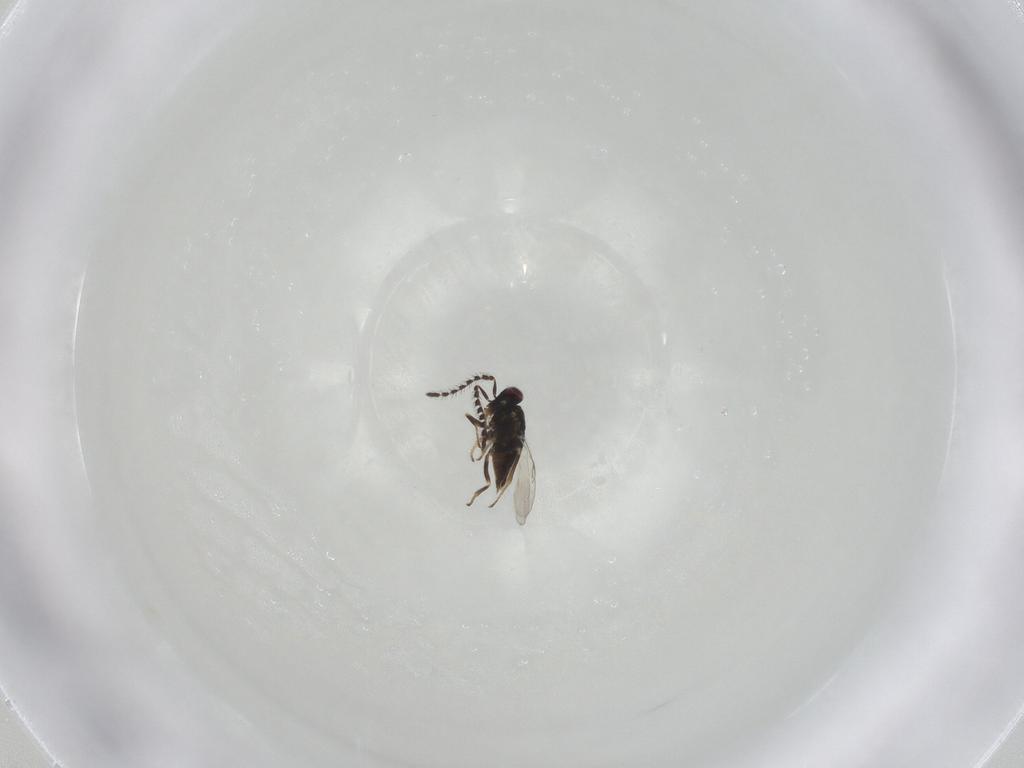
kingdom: Animalia
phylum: Arthropoda
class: Insecta
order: Hymenoptera
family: Encyrtidae
